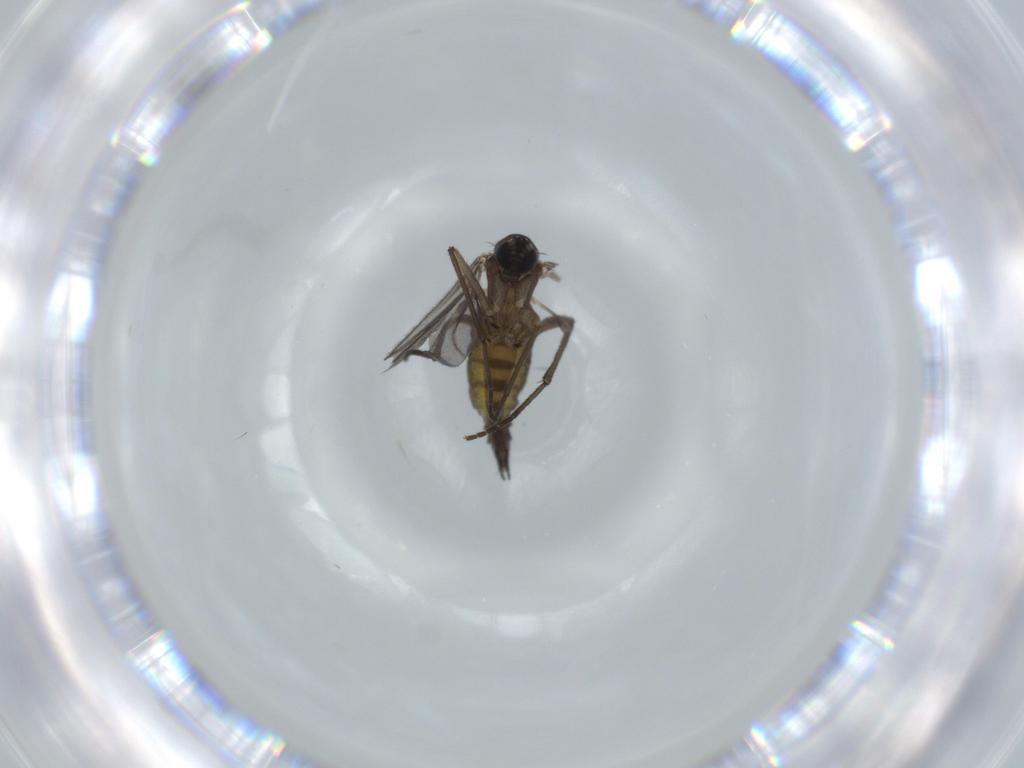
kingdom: Animalia
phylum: Arthropoda
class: Insecta
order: Diptera
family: Sciaridae
